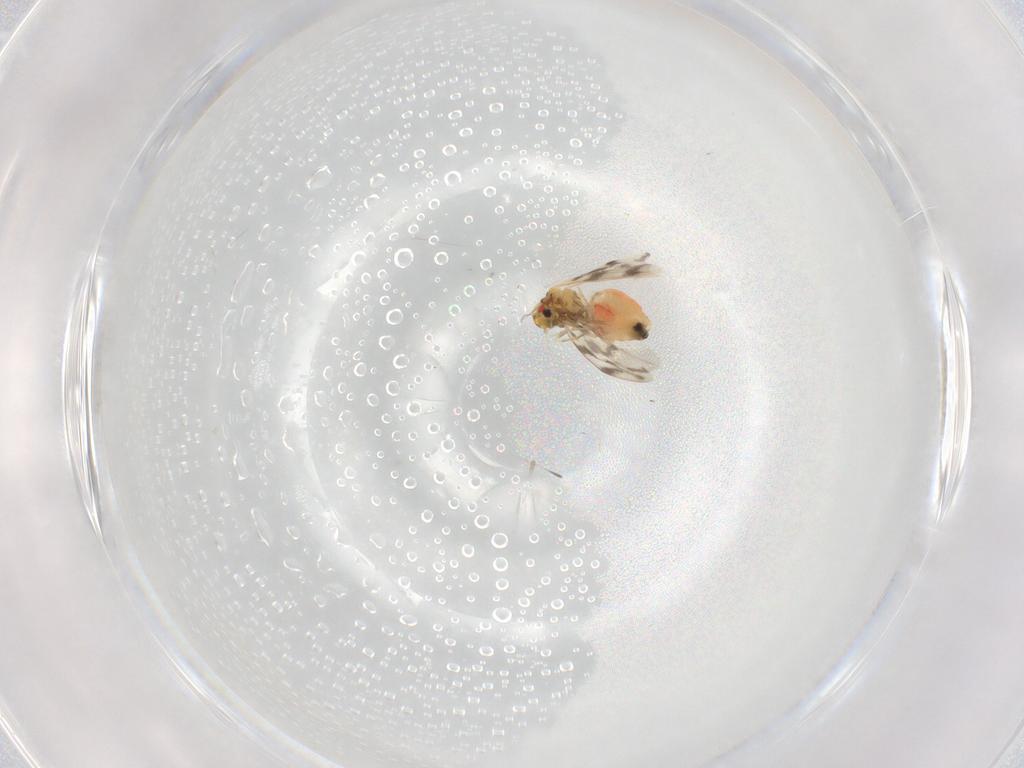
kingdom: Animalia
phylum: Arthropoda
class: Insecta
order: Hemiptera
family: Aleyrodidae
